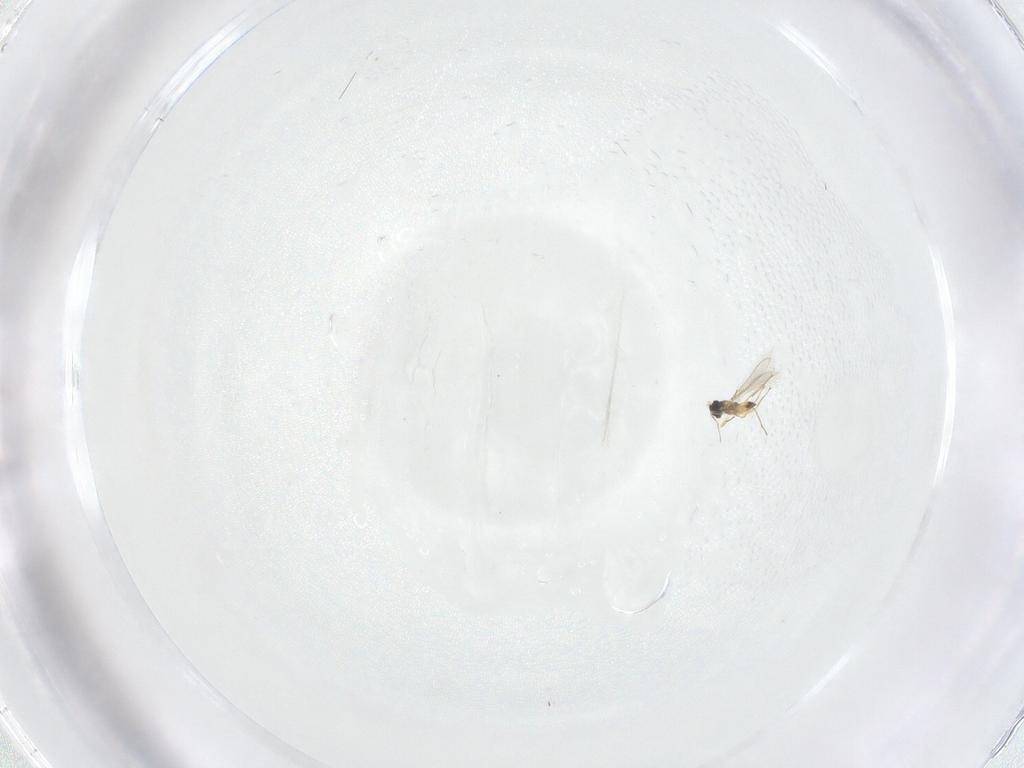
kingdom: Animalia
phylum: Arthropoda
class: Insecta
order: Hymenoptera
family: Mymaridae
